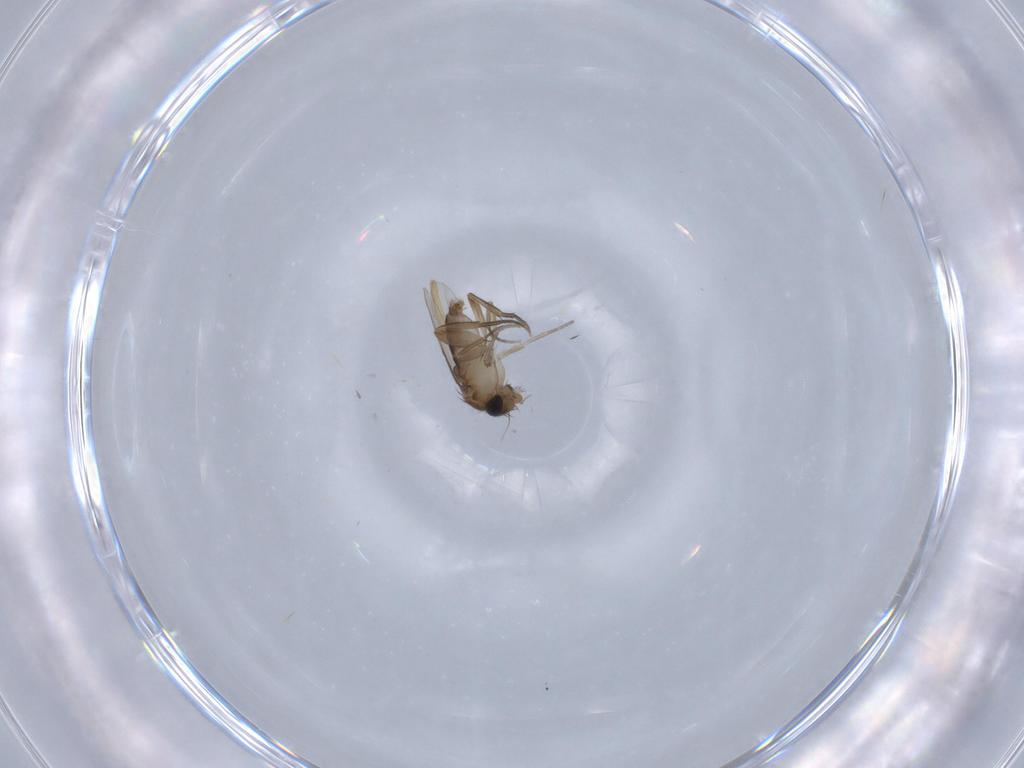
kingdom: Animalia
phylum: Arthropoda
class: Insecta
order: Diptera
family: Phoridae
